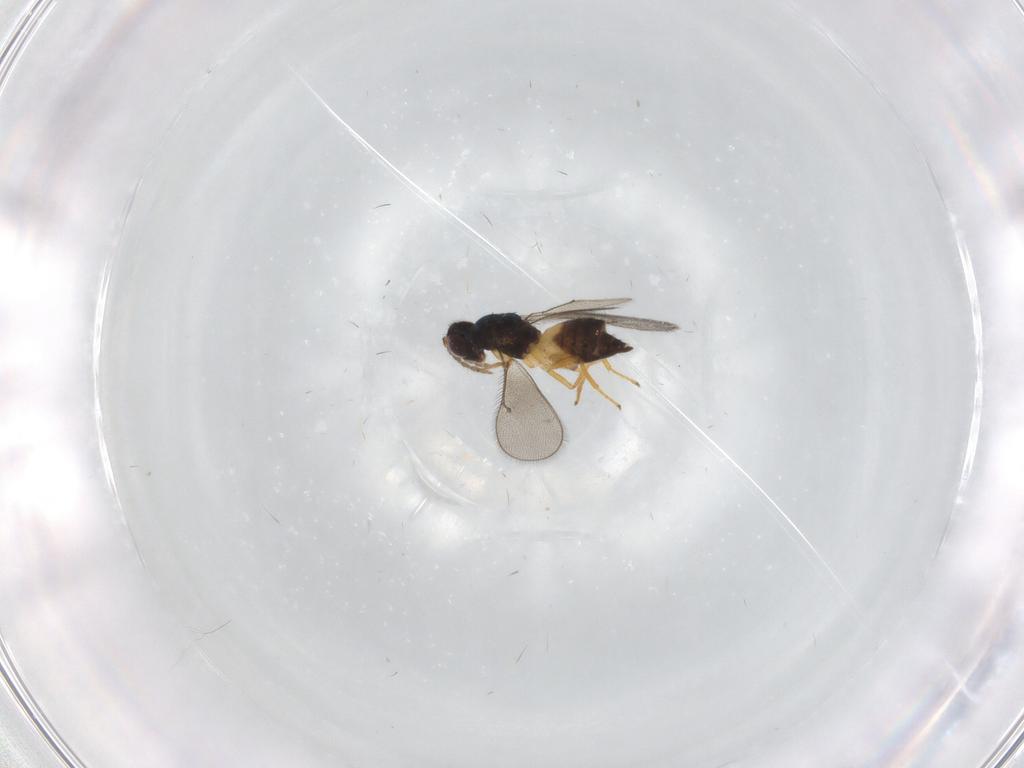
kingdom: Animalia
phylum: Arthropoda
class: Insecta
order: Hymenoptera
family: Eulophidae
